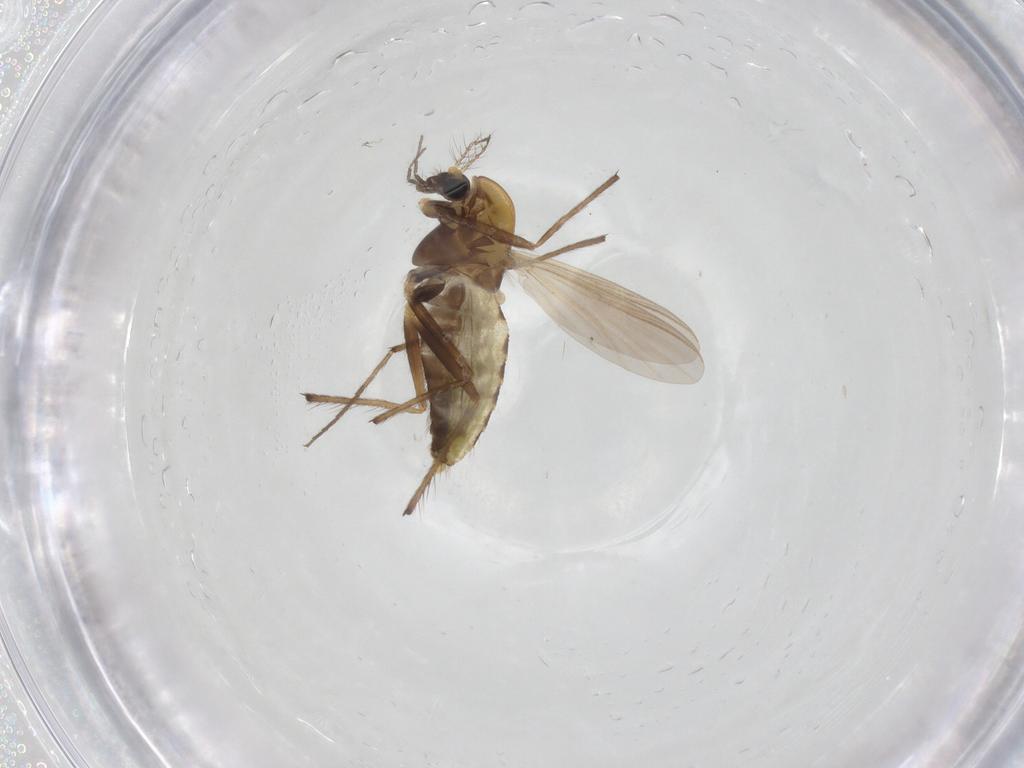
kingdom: Animalia
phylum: Arthropoda
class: Insecta
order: Diptera
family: Chironomidae
